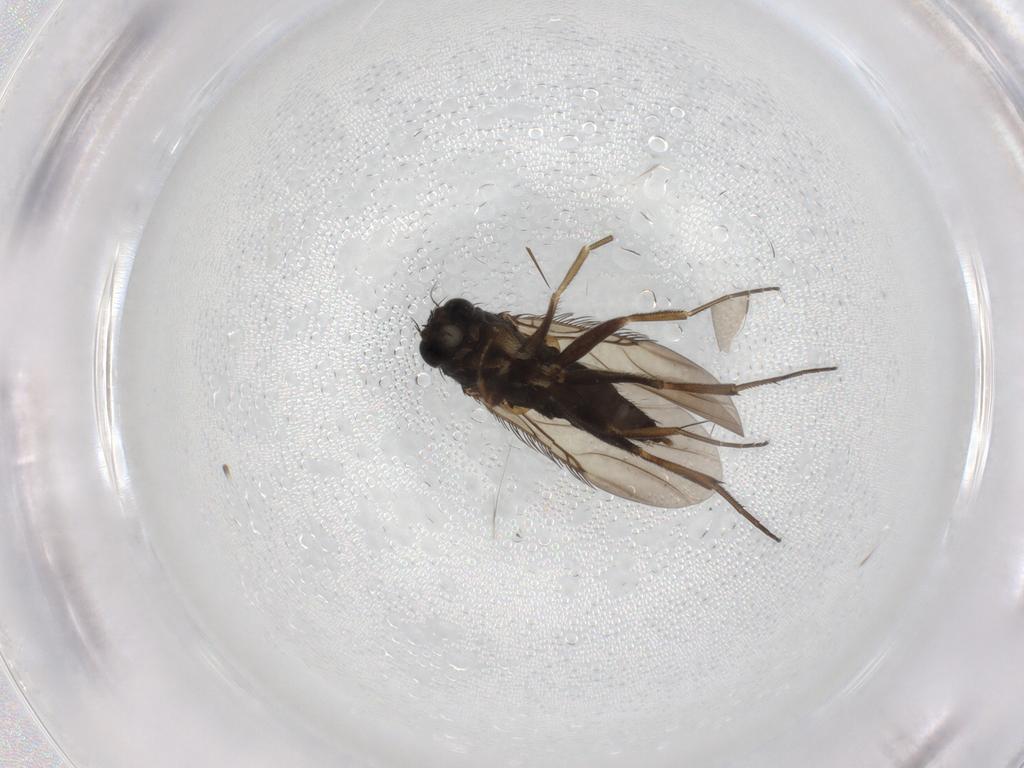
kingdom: Animalia
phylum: Arthropoda
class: Insecta
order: Diptera
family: Phoridae
